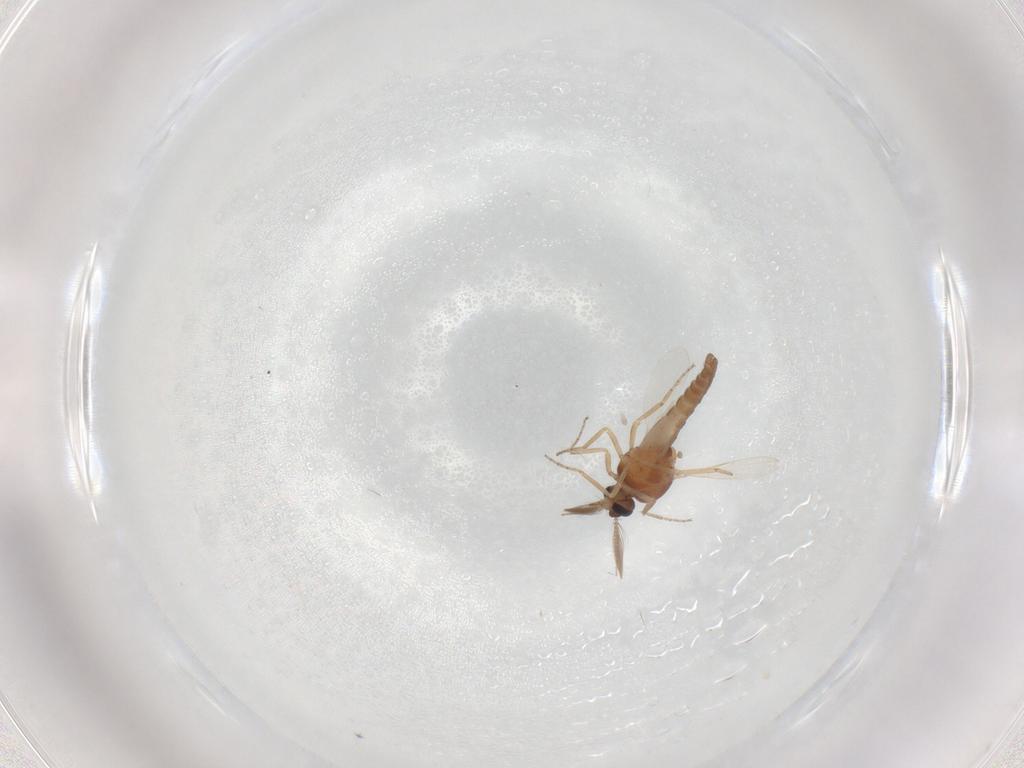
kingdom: Animalia
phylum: Arthropoda
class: Insecta
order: Diptera
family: Ceratopogonidae
